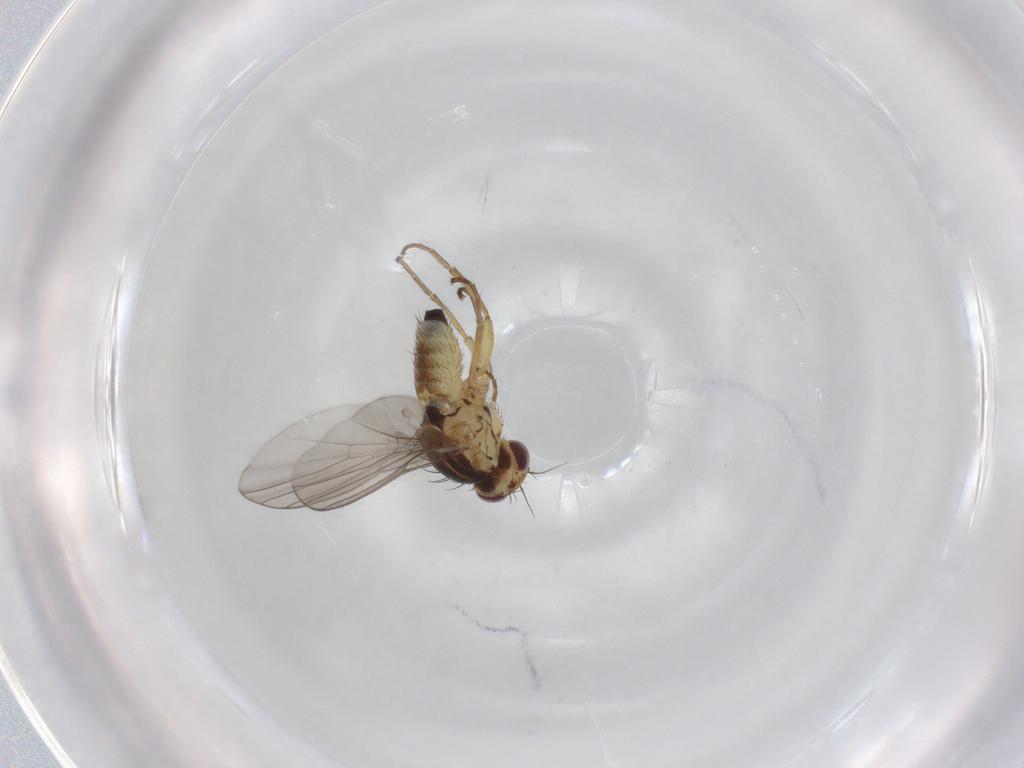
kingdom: Animalia
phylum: Arthropoda
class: Insecta
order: Diptera
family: Agromyzidae
